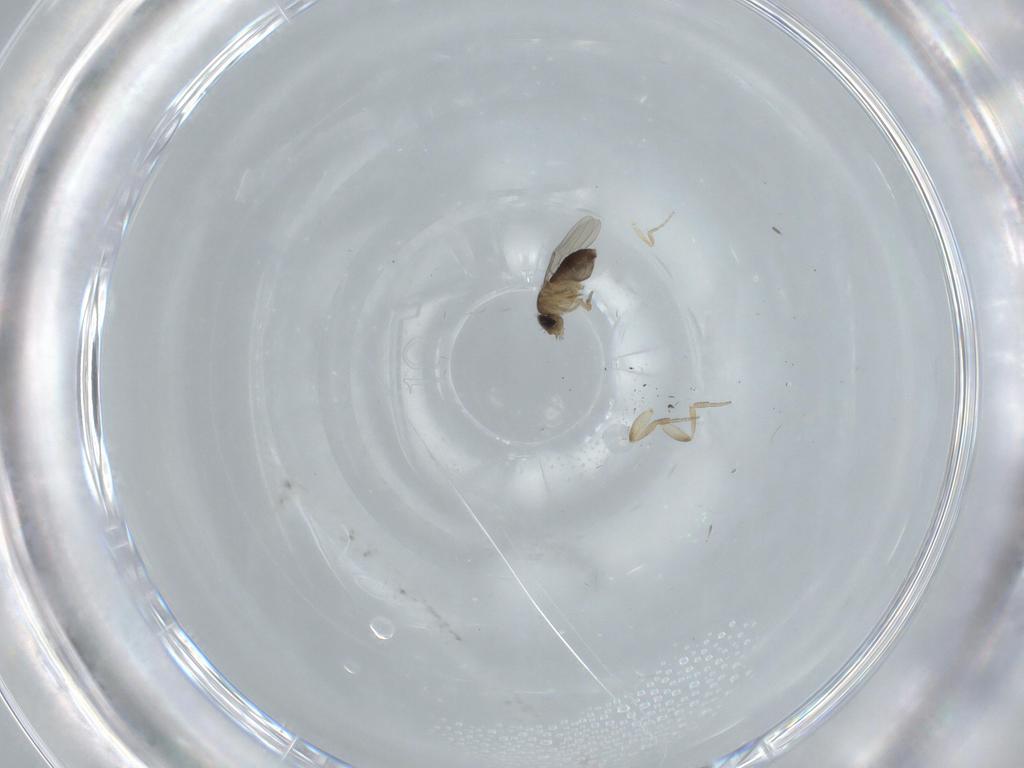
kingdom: Animalia
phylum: Arthropoda
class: Insecta
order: Diptera
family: Phoridae
